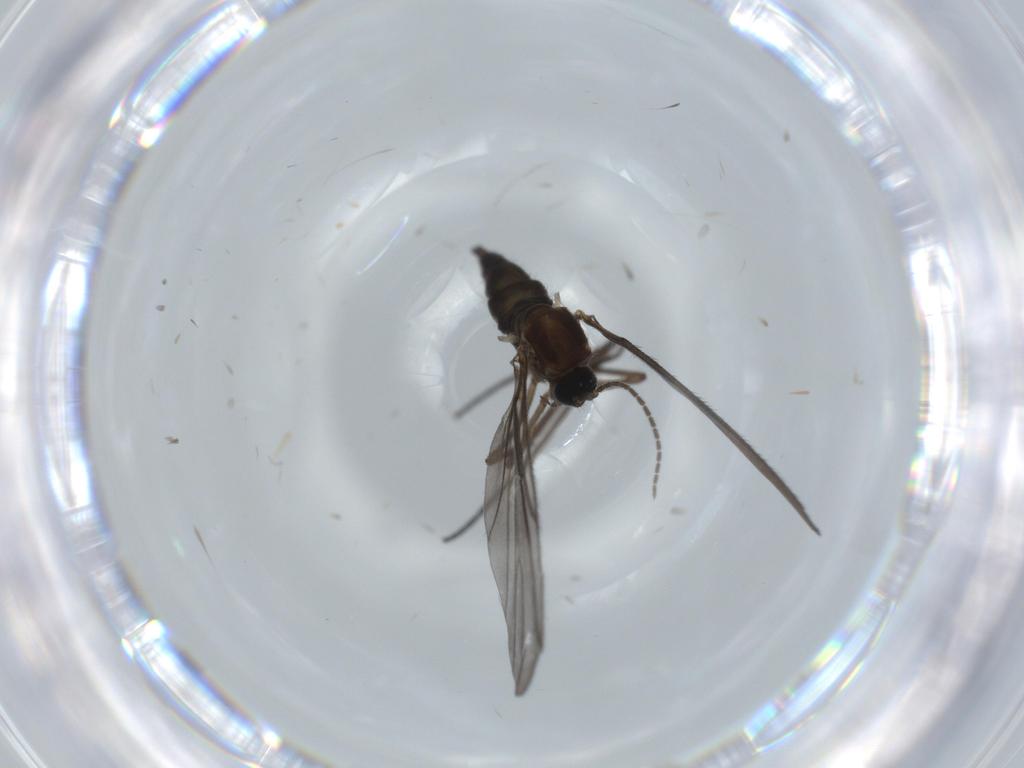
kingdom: Animalia
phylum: Arthropoda
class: Insecta
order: Diptera
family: Sciaridae
